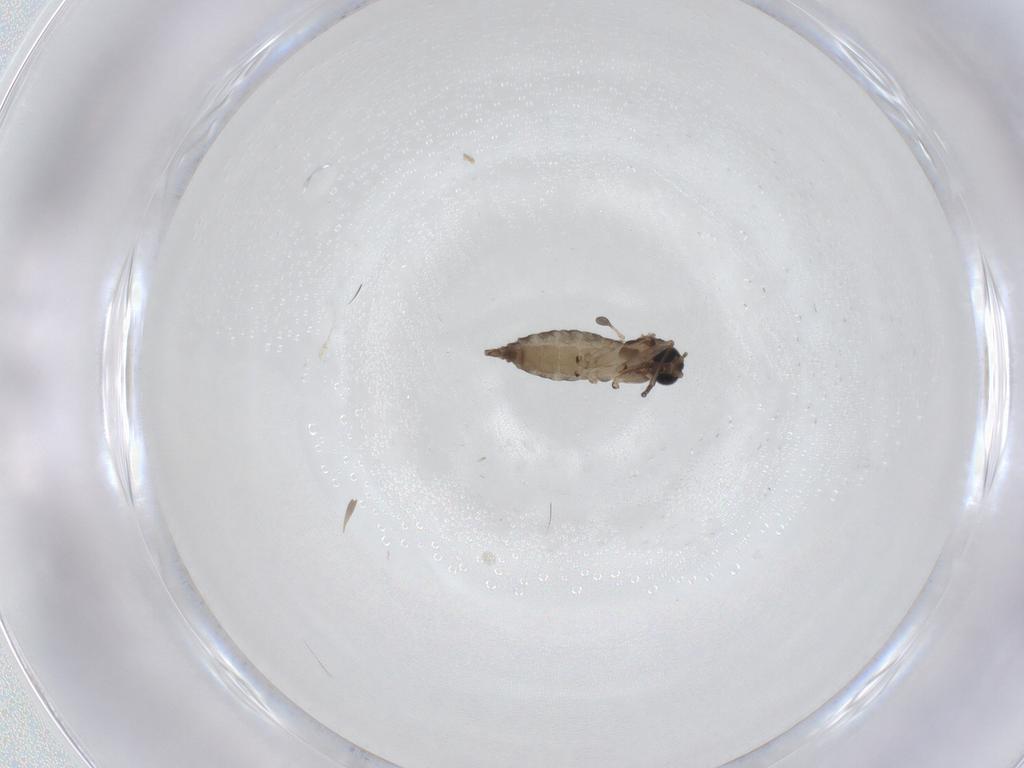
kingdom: Animalia
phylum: Arthropoda
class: Insecta
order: Diptera
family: Sciaridae
